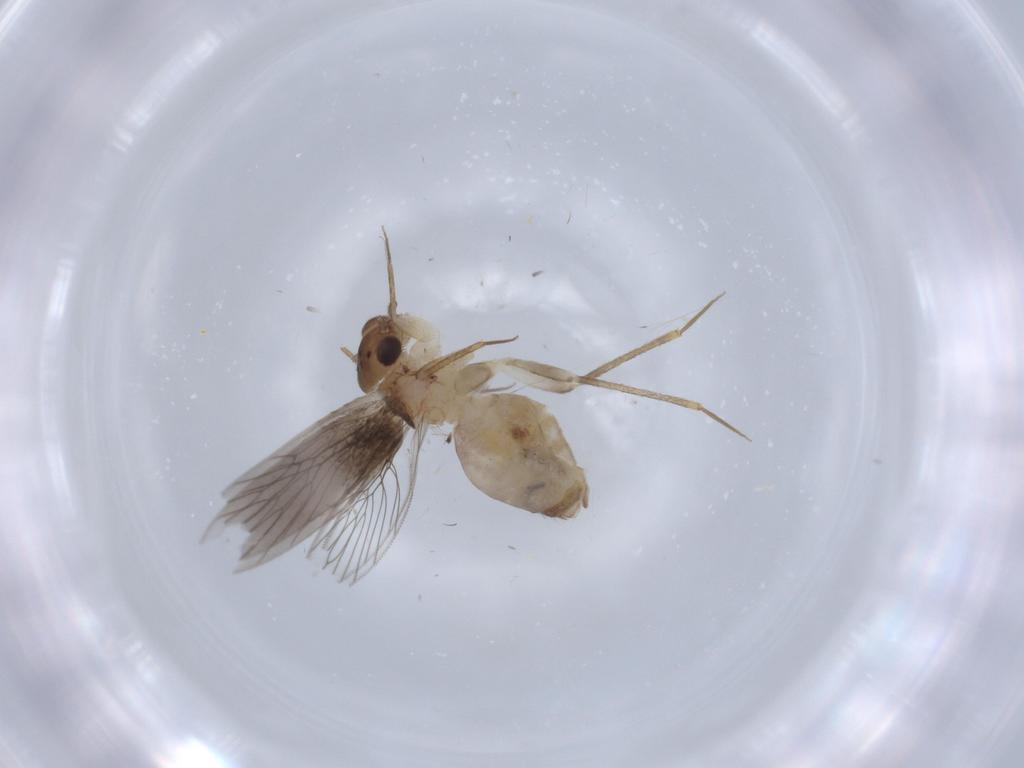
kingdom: Animalia
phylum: Arthropoda
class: Insecta
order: Psocodea
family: Lepidopsocidae
